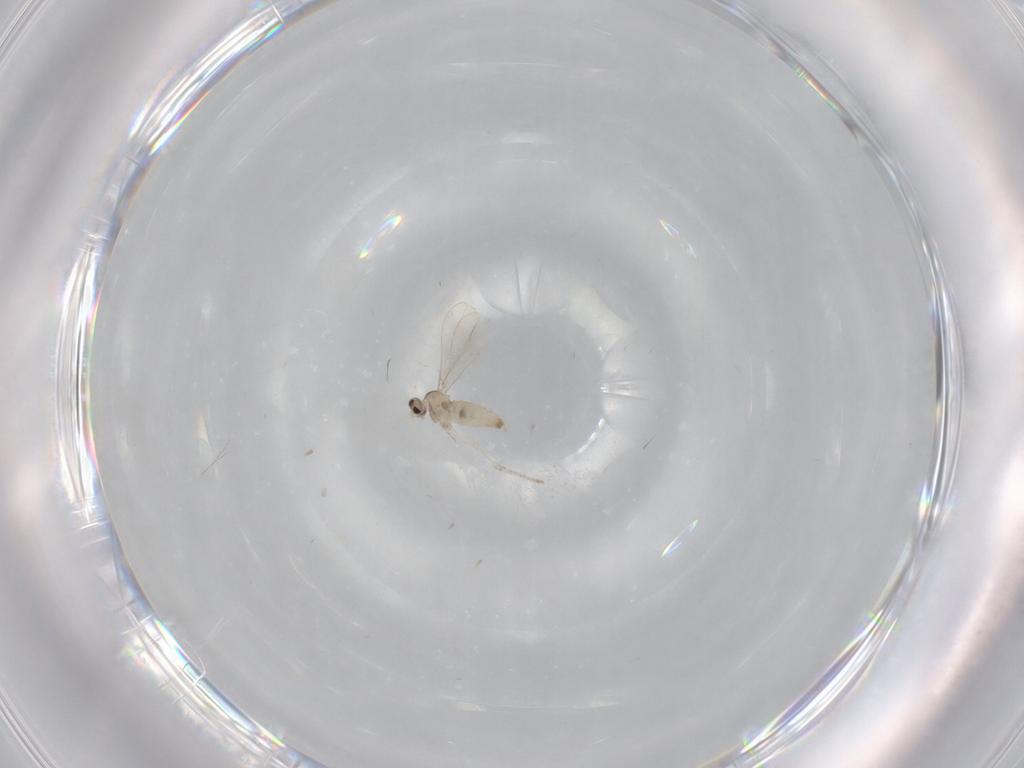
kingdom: Animalia
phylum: Arthropoda
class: Insecta
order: Diptera
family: Cecidomyiidae
